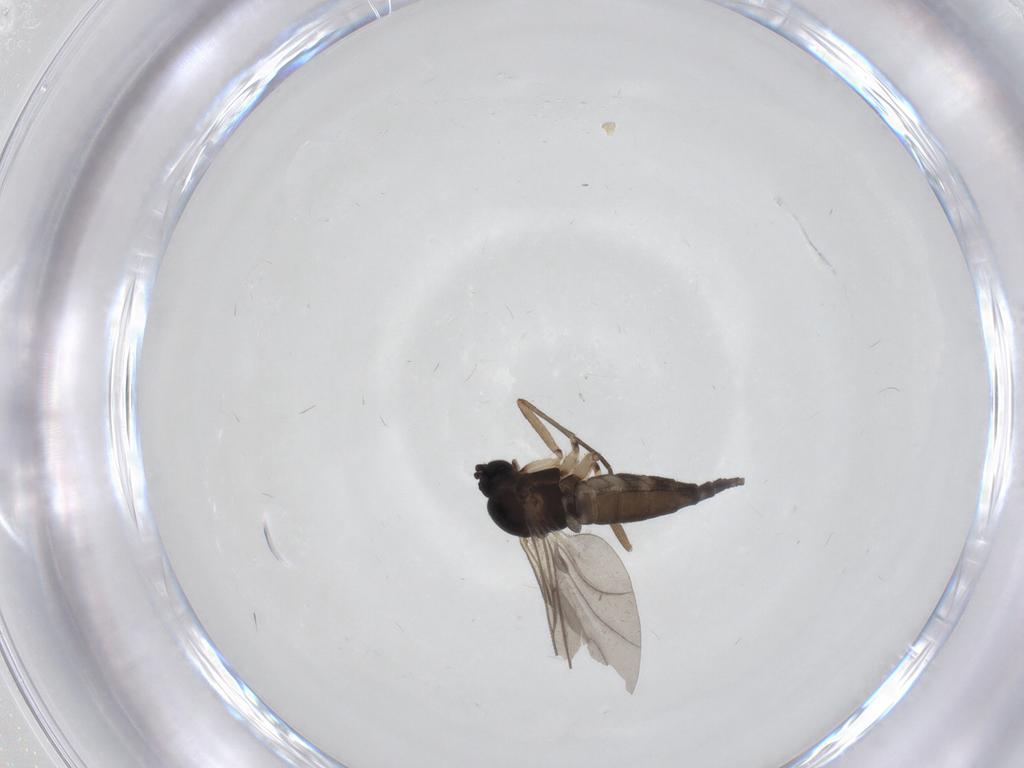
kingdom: Animalia
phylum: Arthropoda
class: Insecta
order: Diptera
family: Sciaridae
